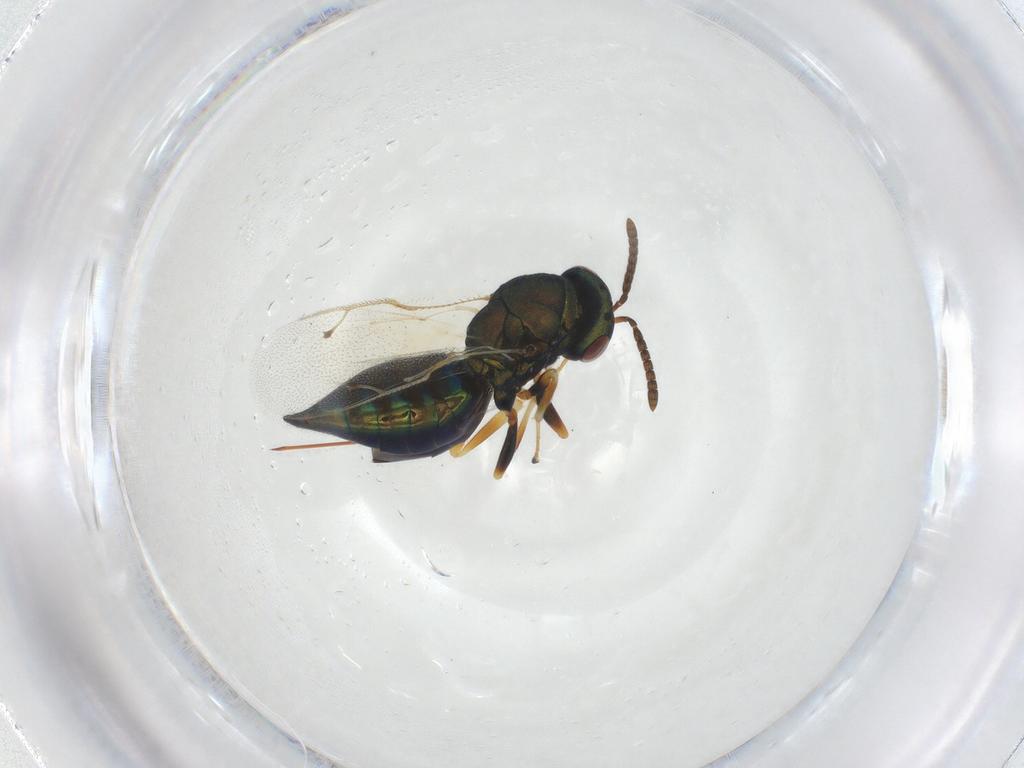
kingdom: Animalia
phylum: Arthropoda
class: Insecta
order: Hymenoptera
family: Pteromalidae
